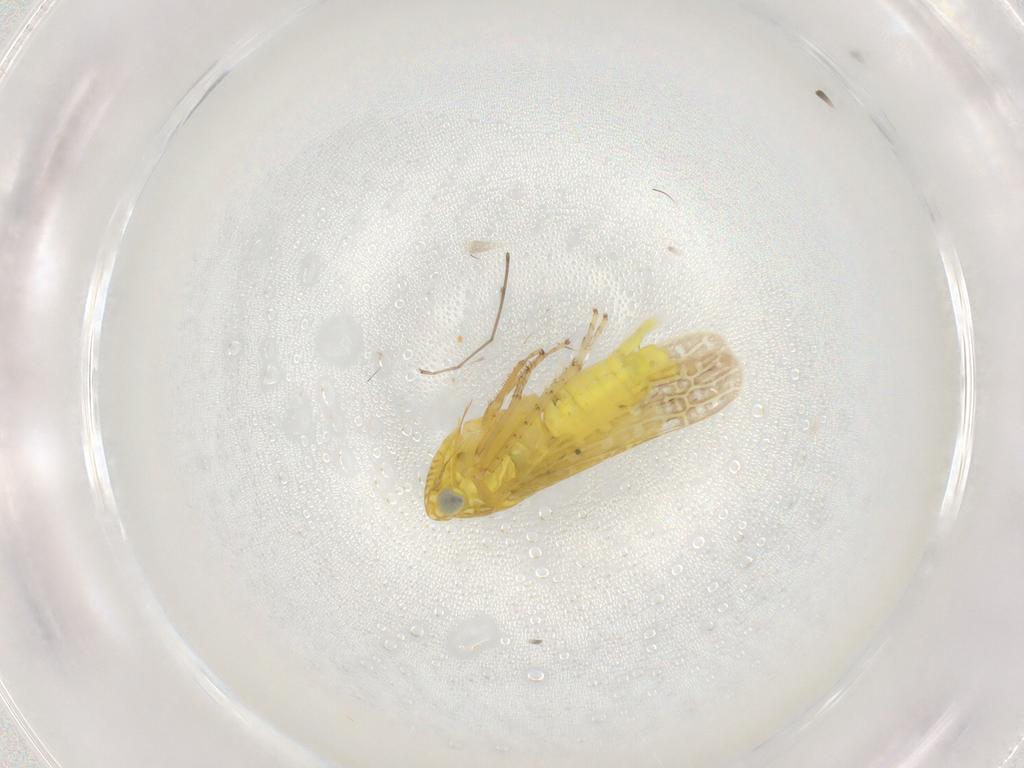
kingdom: Animalia
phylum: Arthropoda
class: Insecta
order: Hemiptera
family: Cicadellidae
